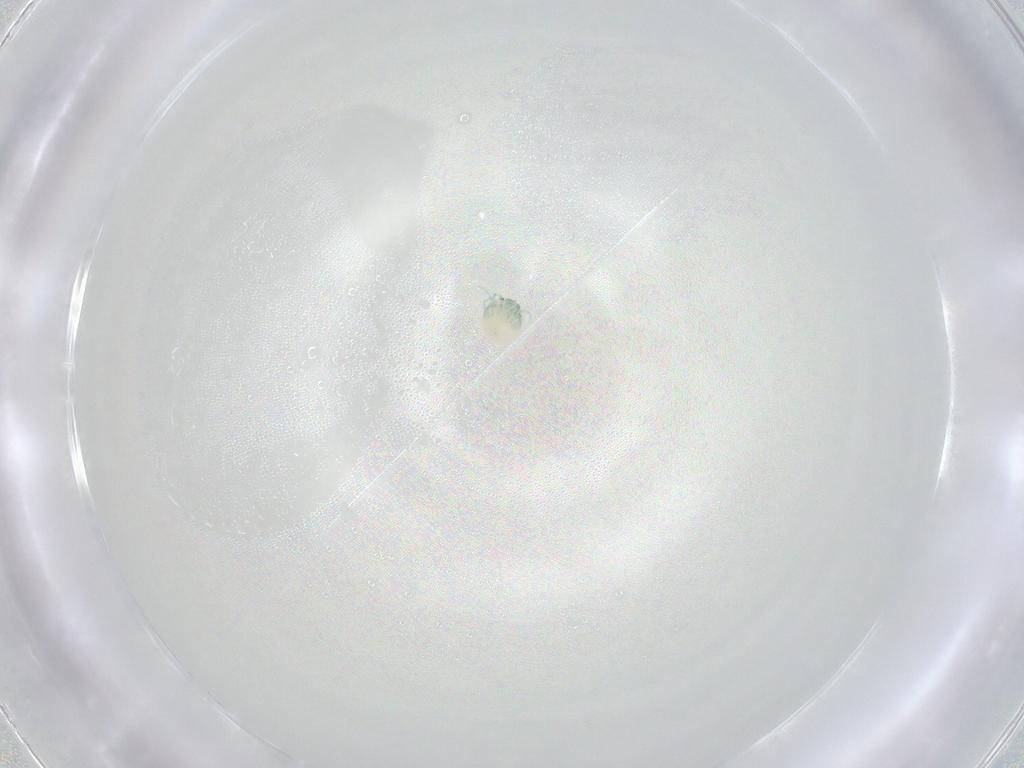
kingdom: Animalia
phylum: Arthropoda
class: Arachnida
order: Trombidiformes
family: Arrenuridae
